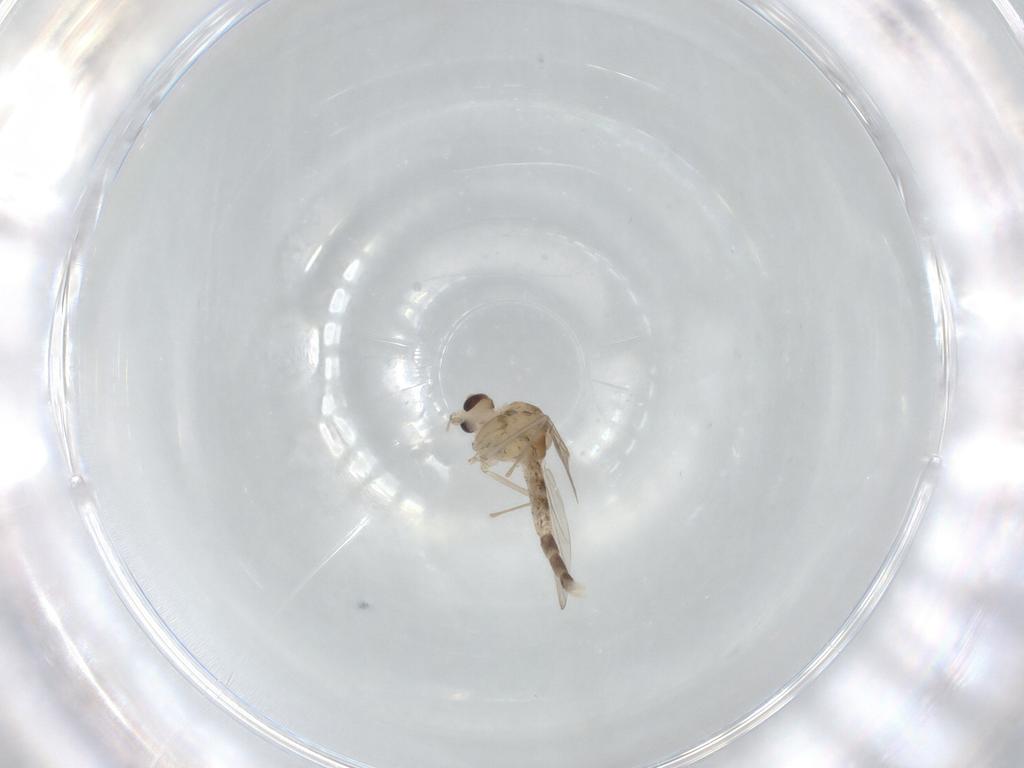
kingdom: Animalia
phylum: Arthropoda
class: Insecta
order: Diptera
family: Chironomidae
